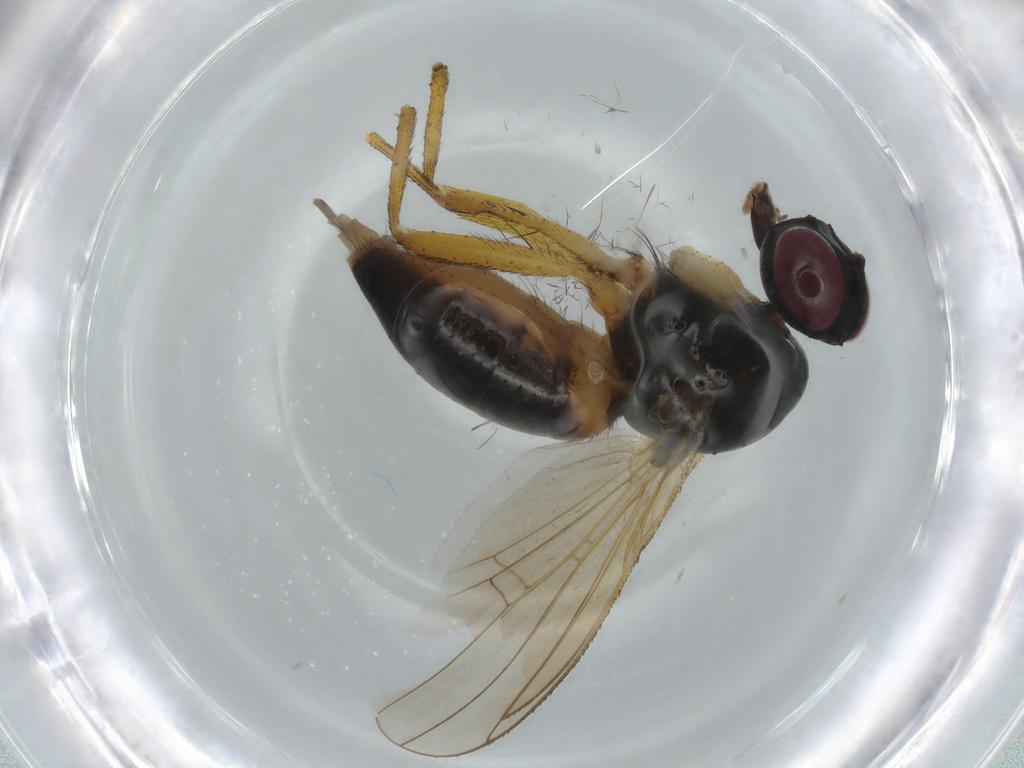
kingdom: Animalia
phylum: Arthropoda
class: Insecta
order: Diptera
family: Muscidae
